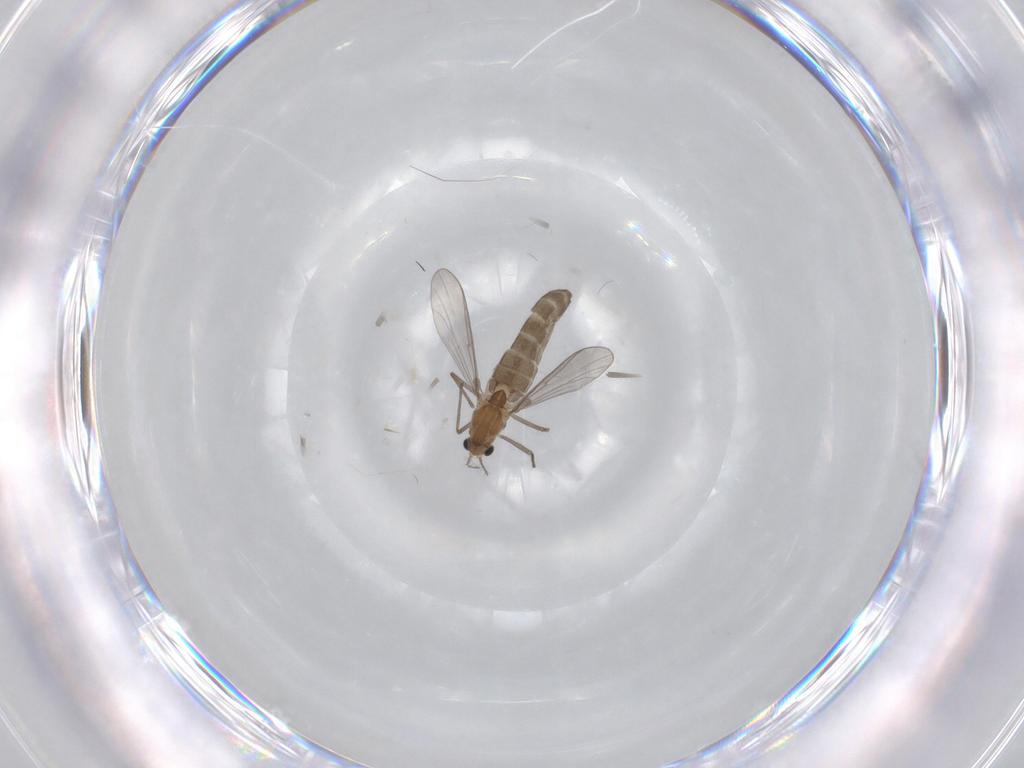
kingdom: Animalia
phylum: Arthropoda
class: Insecta
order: Diptera
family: Chironomidae
